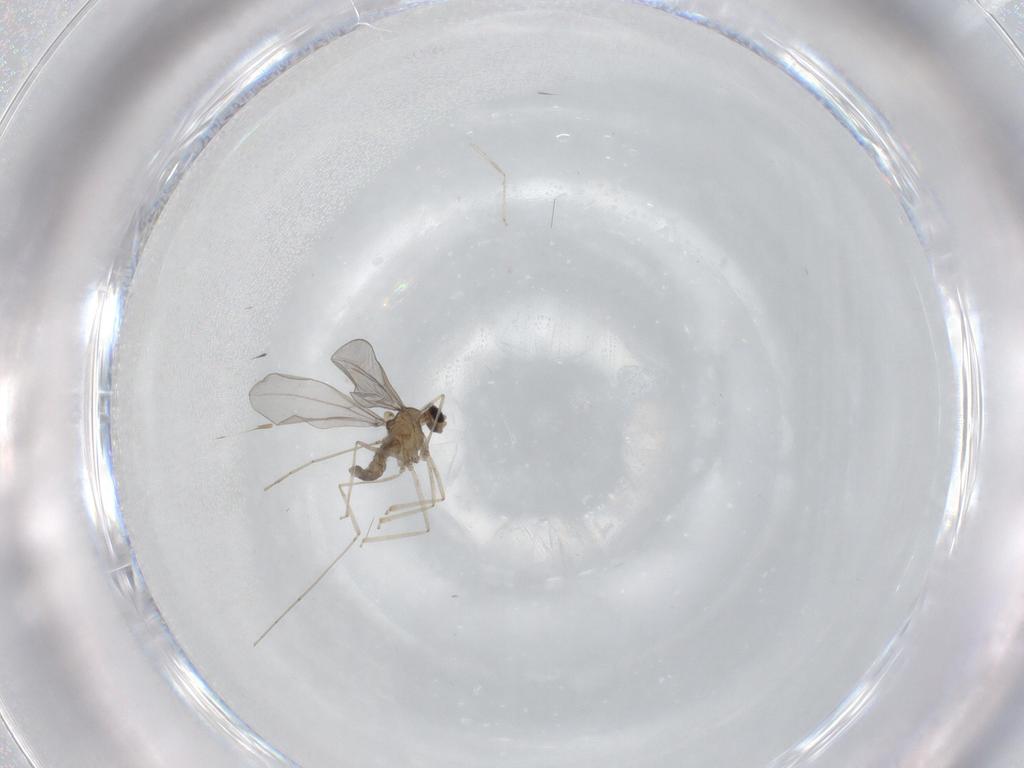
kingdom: Animalia
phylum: Arthropoda
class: Insecta
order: Diptera
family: Cecidomyiidae
